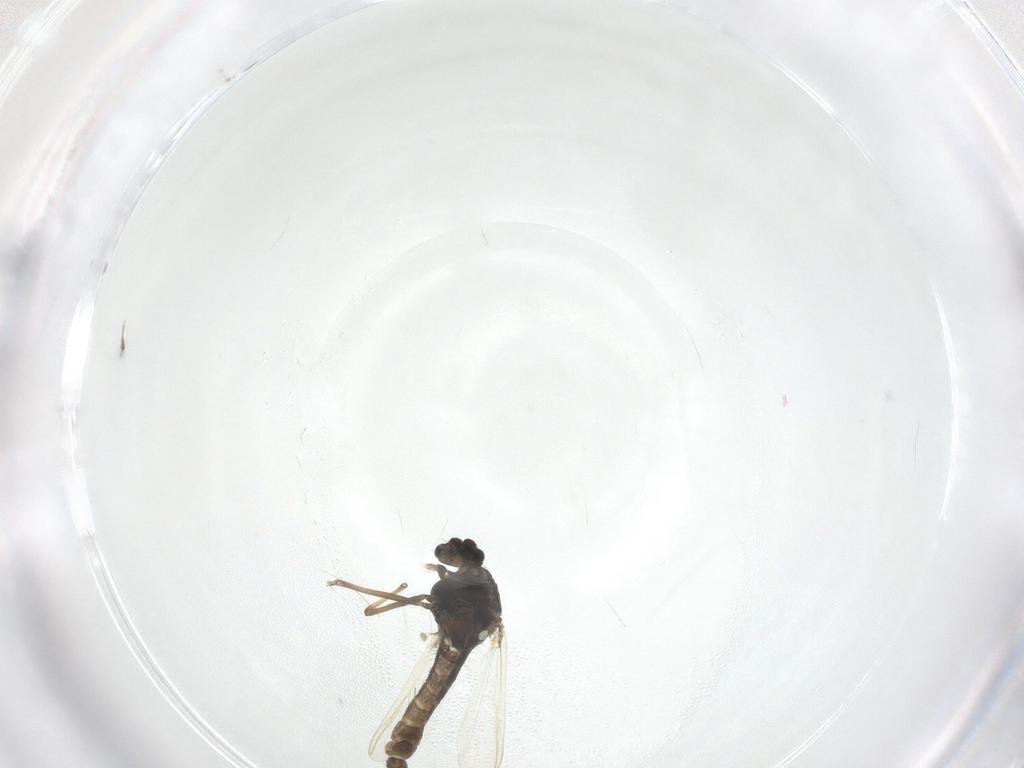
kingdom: Animalia
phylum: Arthropoda
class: Insecta
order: Diptera
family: Chironomidae
